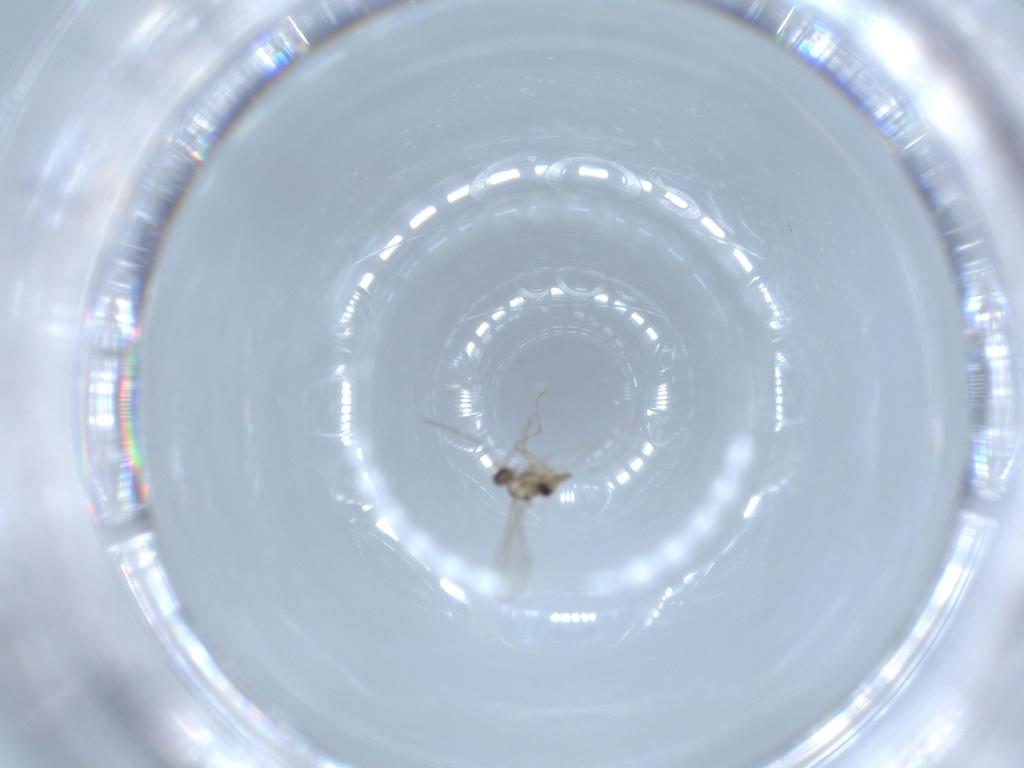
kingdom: Animalia
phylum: Arthropoda
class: Insecta
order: Diptera
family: Cecidomyiidae
